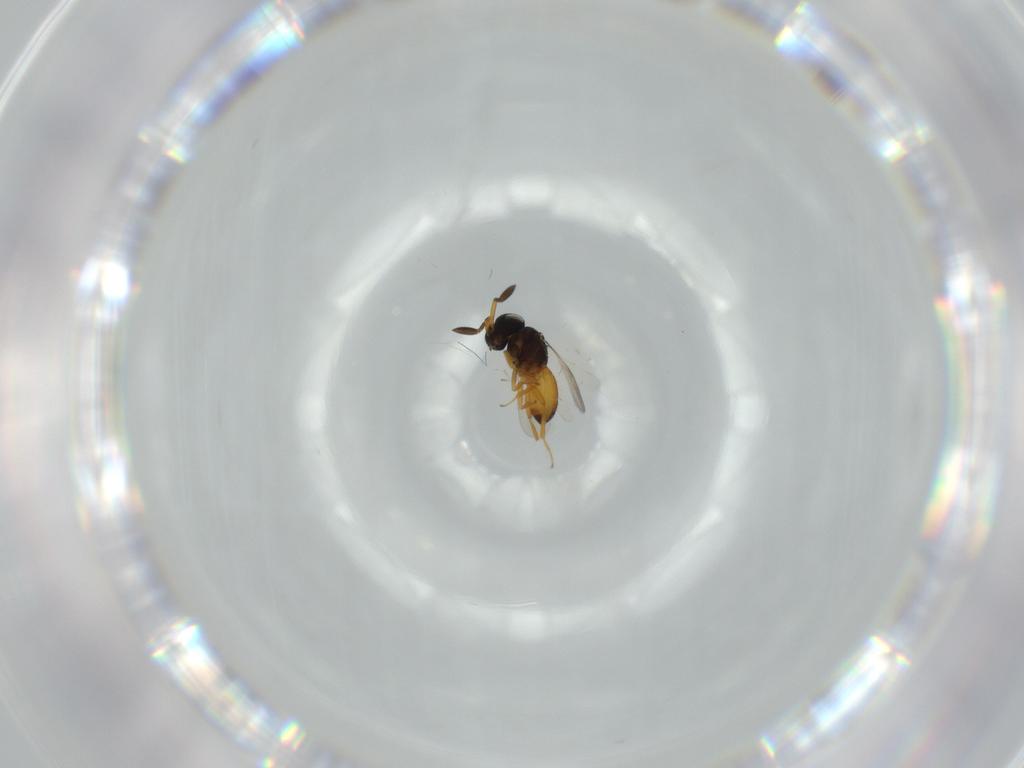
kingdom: Animalia
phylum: Arthropoda
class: Insecta
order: Hymenoptera
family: Scelionidae
